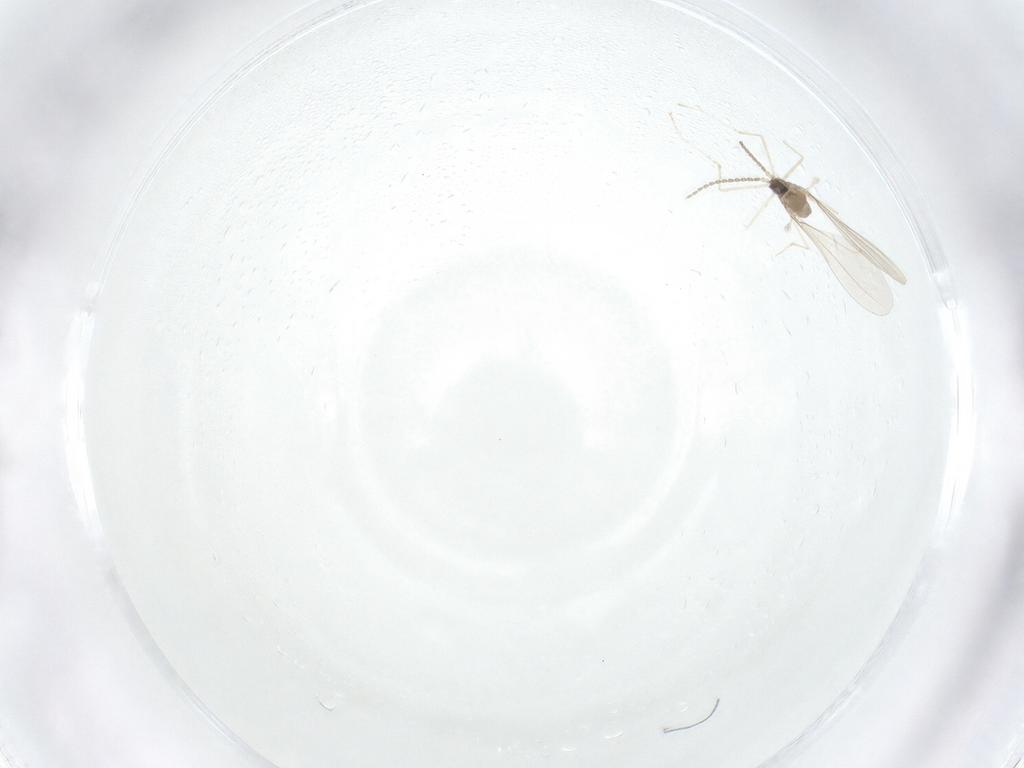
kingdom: Animalia
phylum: Arthropoda
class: Insecta
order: Diptera
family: Cecidomyiidae
